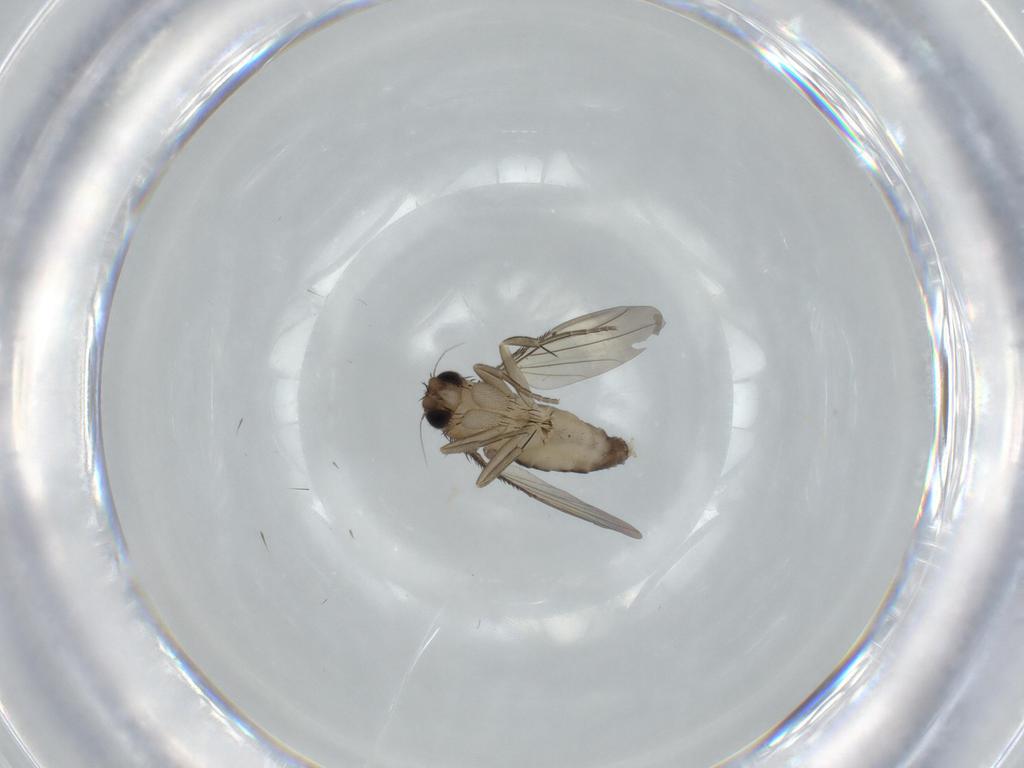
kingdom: Animalia
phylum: Arthropoda
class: Insecta
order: Diptera
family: Phoridae
